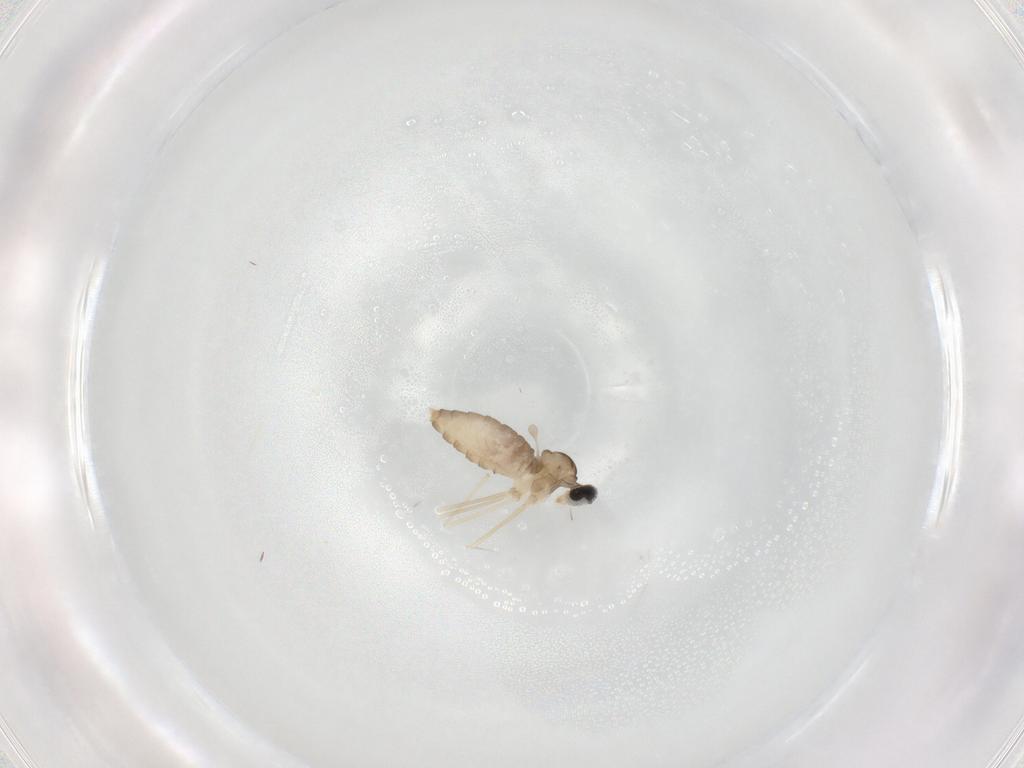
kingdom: Animalia
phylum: Arthropoda
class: Insecta
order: Diptera
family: Cecidomyiidae
